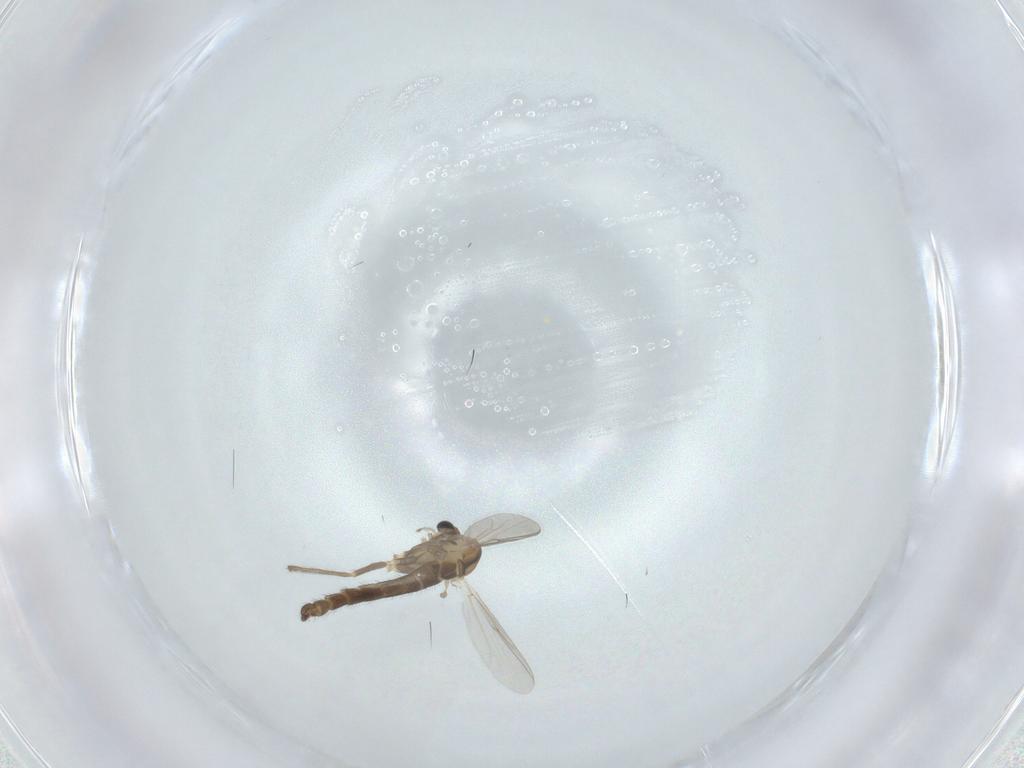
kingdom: Animalia
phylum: Arthropoda
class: Insecta
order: Diptera
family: Chironomidae
